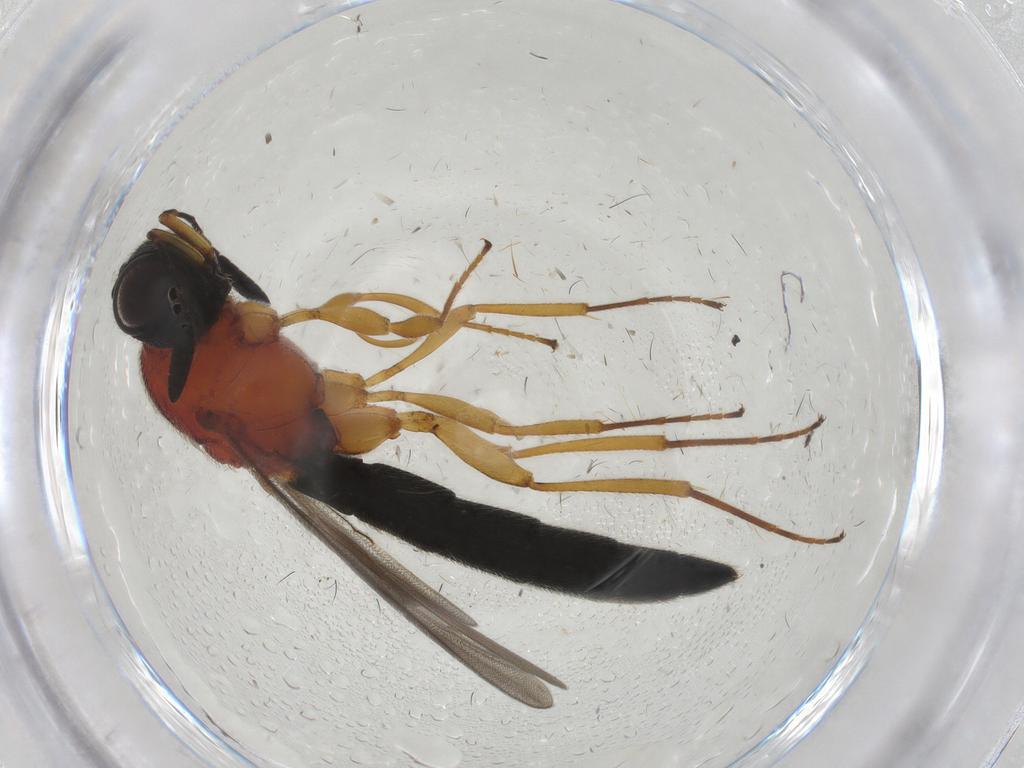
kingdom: Animalia
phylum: Arthropoda
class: Insecta
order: Hymenoptera
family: Scelionidae
